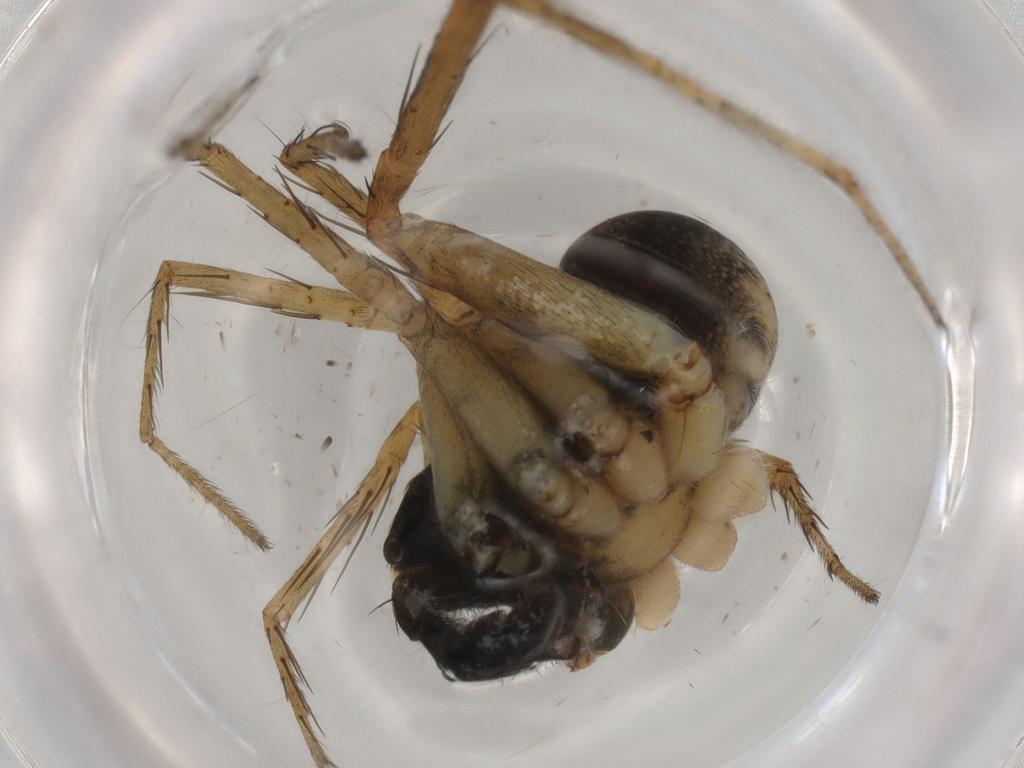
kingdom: Animalia
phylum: Arthropoda
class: Arachnida
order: Araneae
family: Lycosidae
